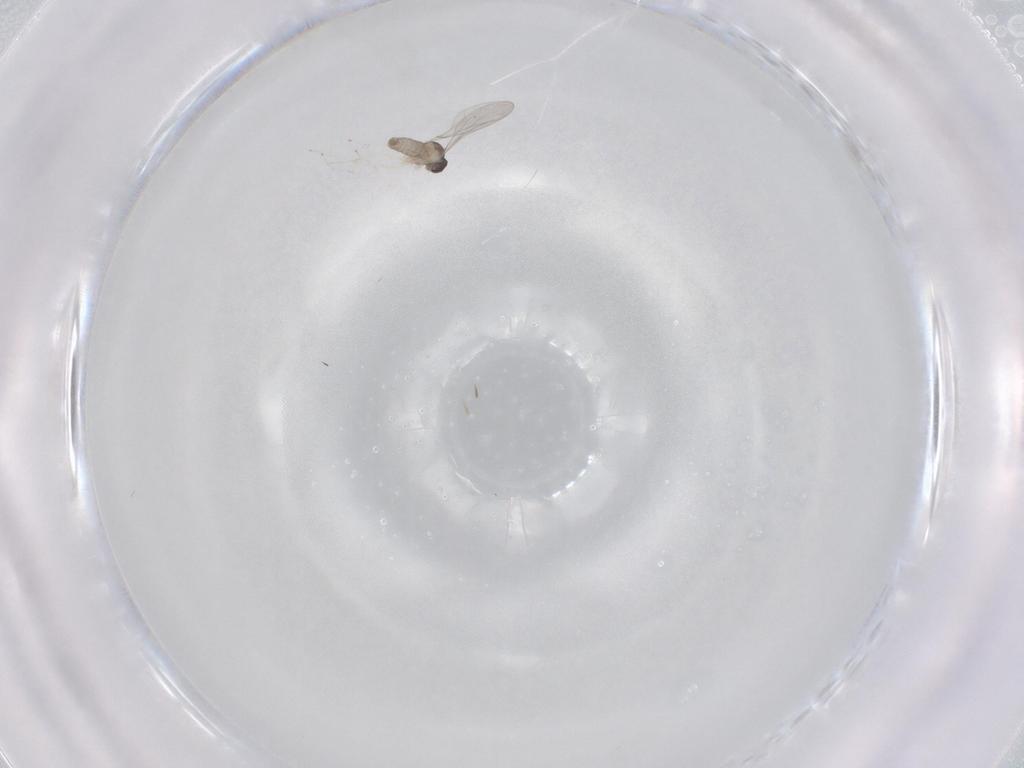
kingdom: Animalia
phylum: Arthropoda
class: Insecta
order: Diptera
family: Cecidomyiidae
